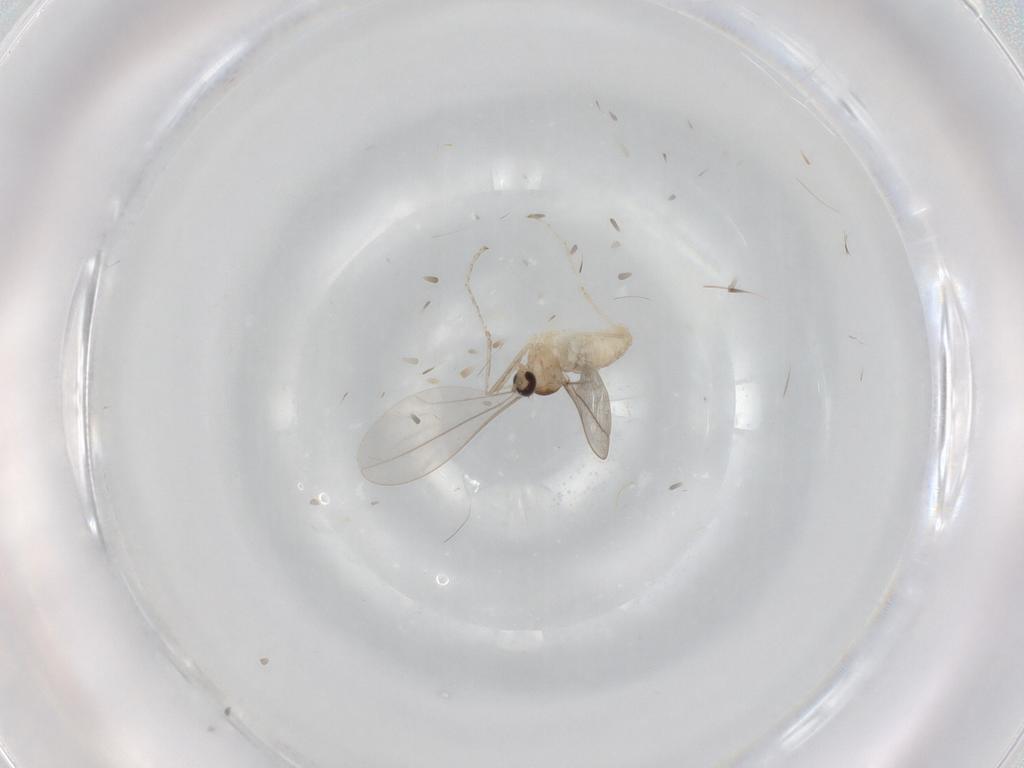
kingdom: Animalia
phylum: Arthropoda
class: Insecta
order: Diptera
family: Cecidomyiidae
